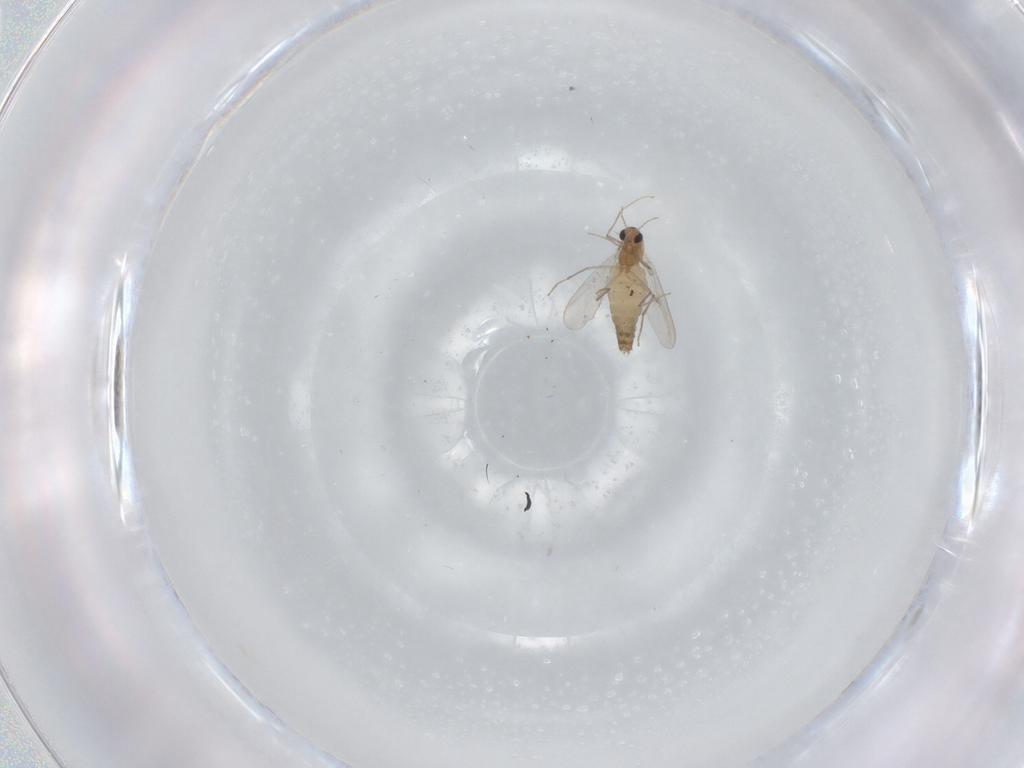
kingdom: Animalia
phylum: Arthropoda
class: Insecta
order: Diptera
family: Chironomidae
